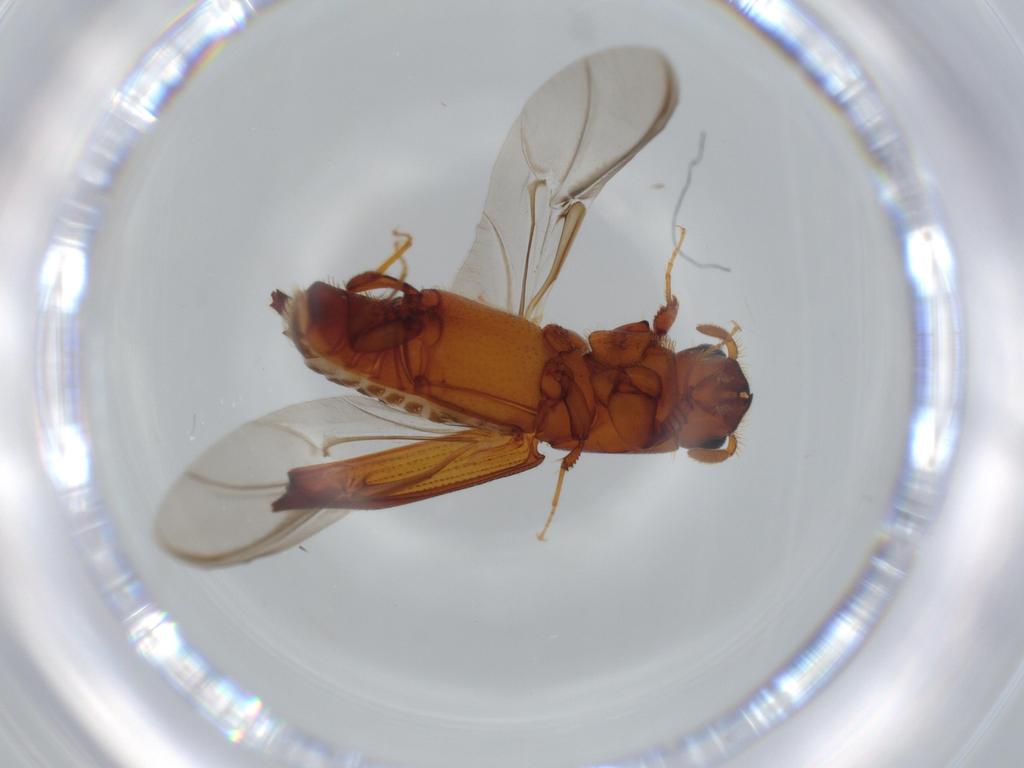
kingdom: Animalia
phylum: Arthropoda
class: Insecta
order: Coleoptera
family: Curculionidae
